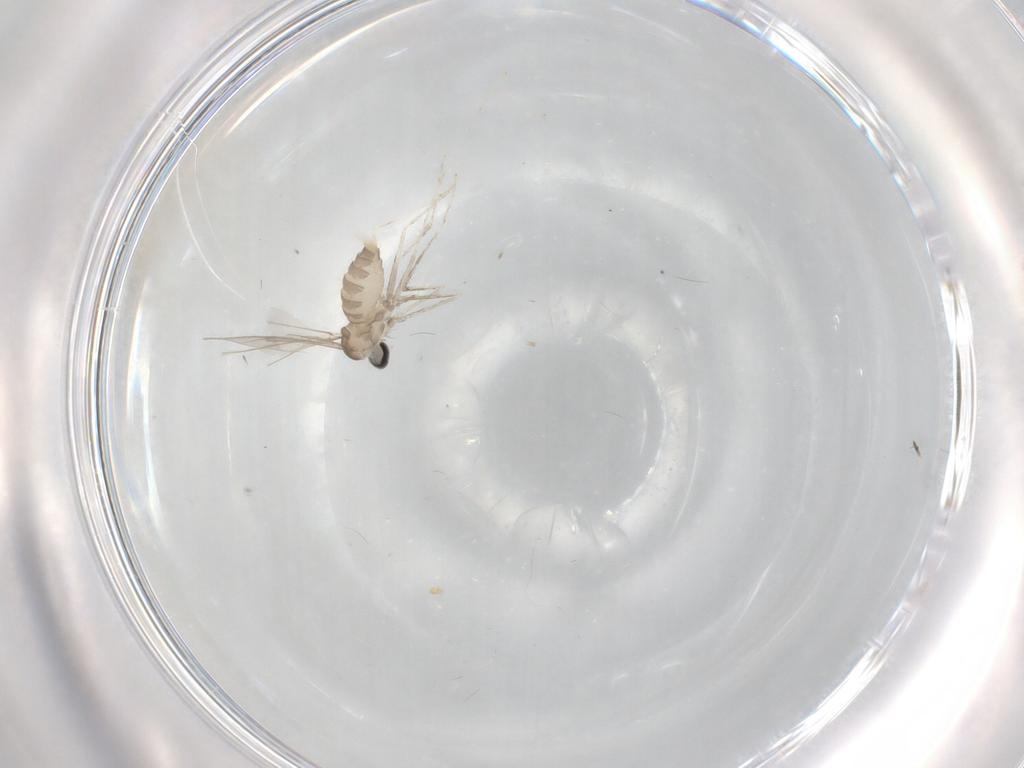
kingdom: Animalia
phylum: Arthropoda
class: Insecta
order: Diptera
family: Cecidomyiidae
